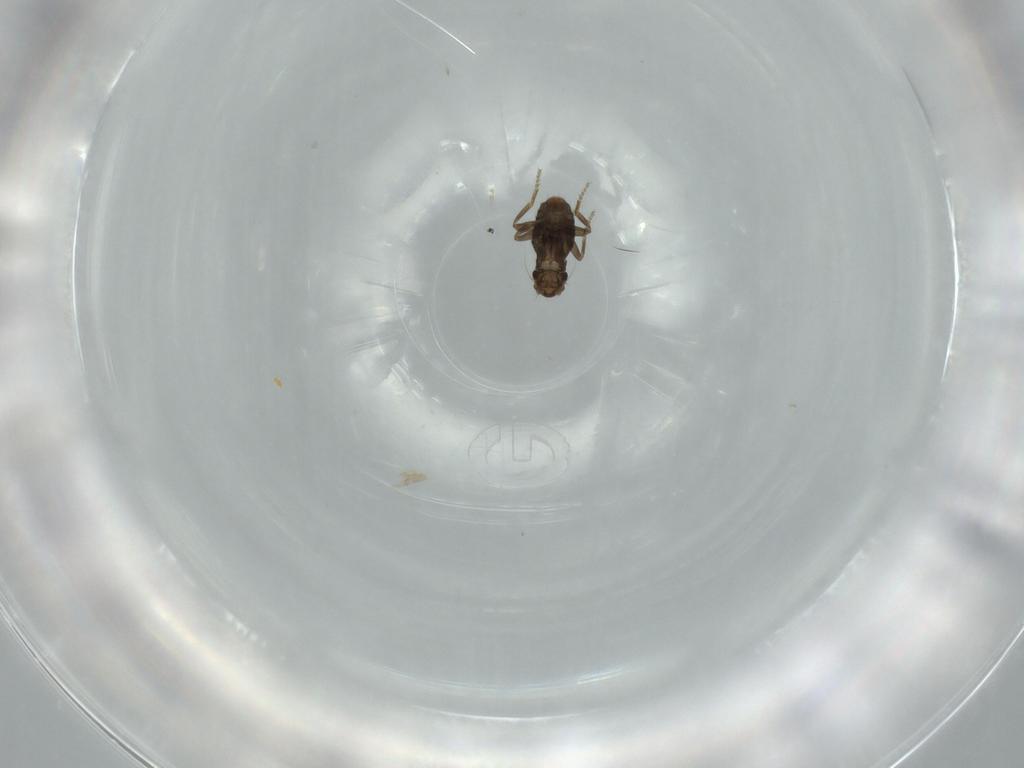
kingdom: Animalia
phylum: Arthropoda
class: Insecta
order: Diptera
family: Phoridae
